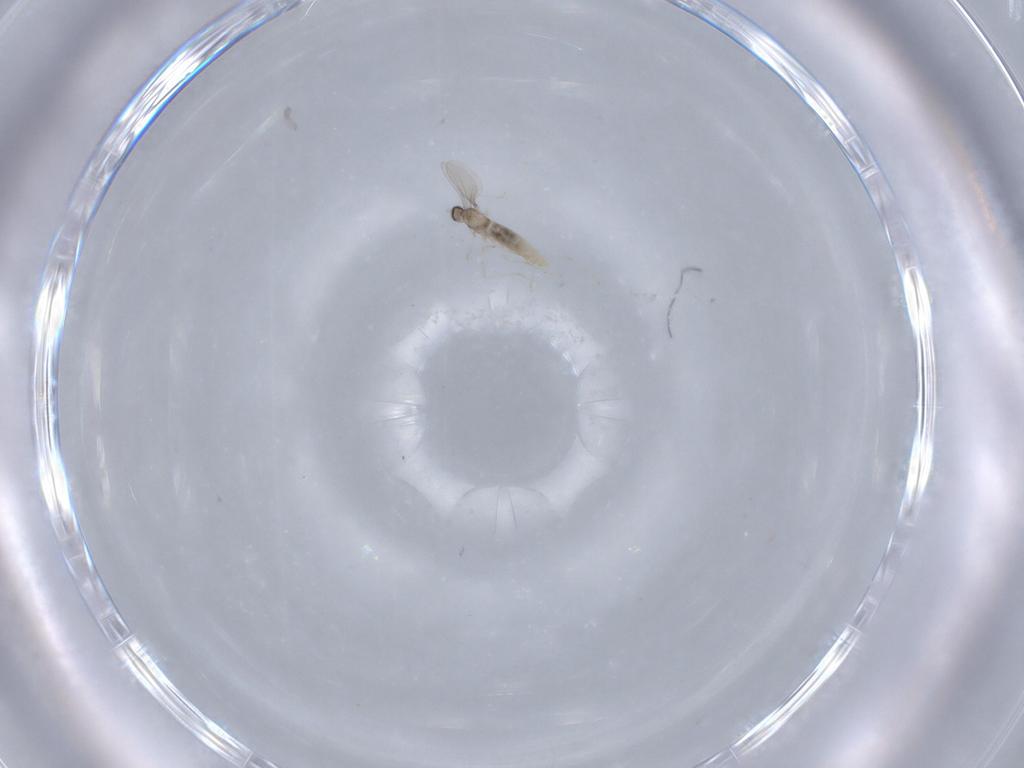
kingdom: Animalia
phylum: Arthropoda
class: Insecta
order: Diptera
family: Cecidomyiidae
